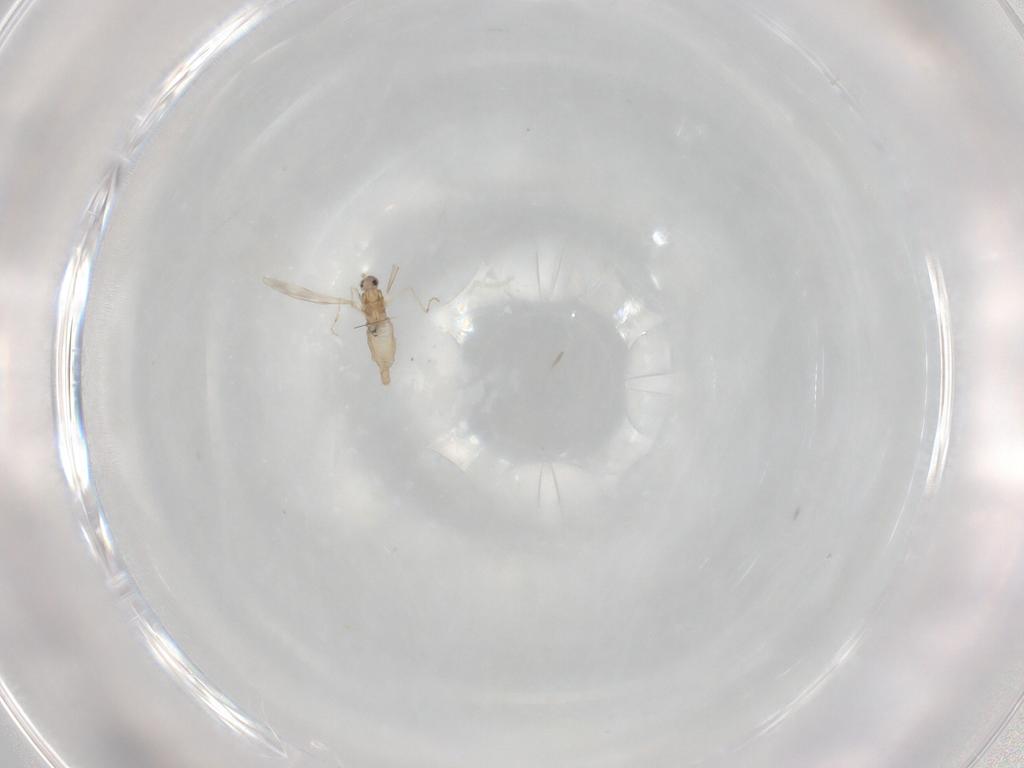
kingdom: Animalia
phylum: Arthropoda
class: Insecta
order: Diptera
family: Cecidomyiidae
